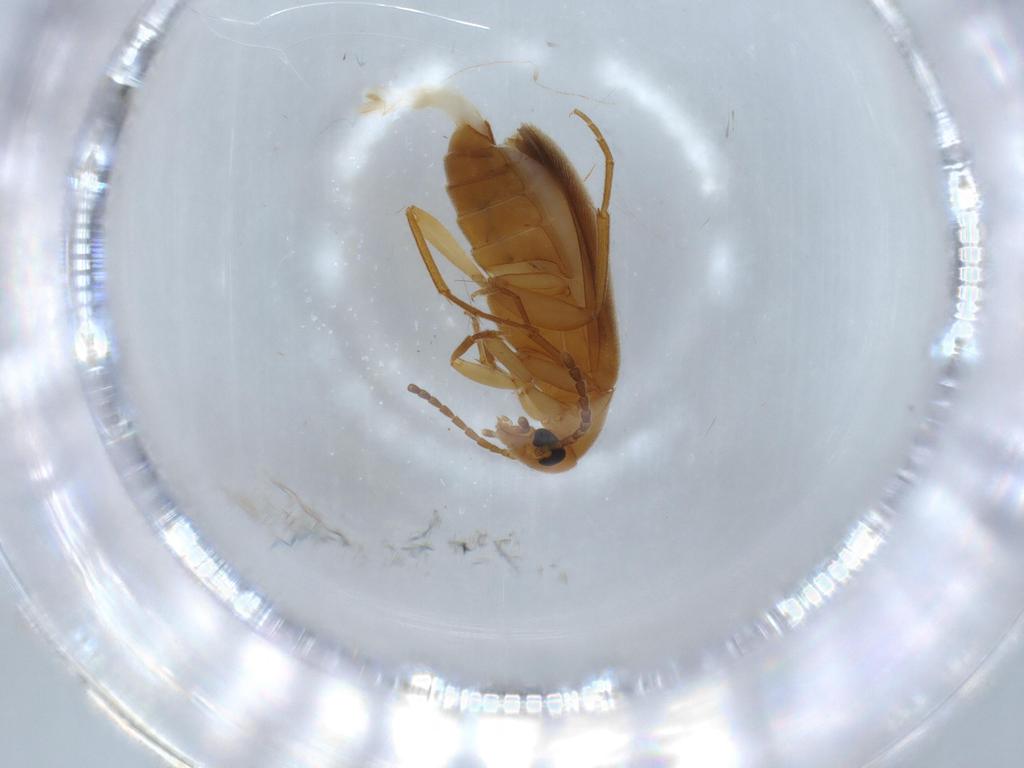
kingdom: Animalia
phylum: Arthropoda
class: Insecta
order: Coleoptera
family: Scraptiidae
